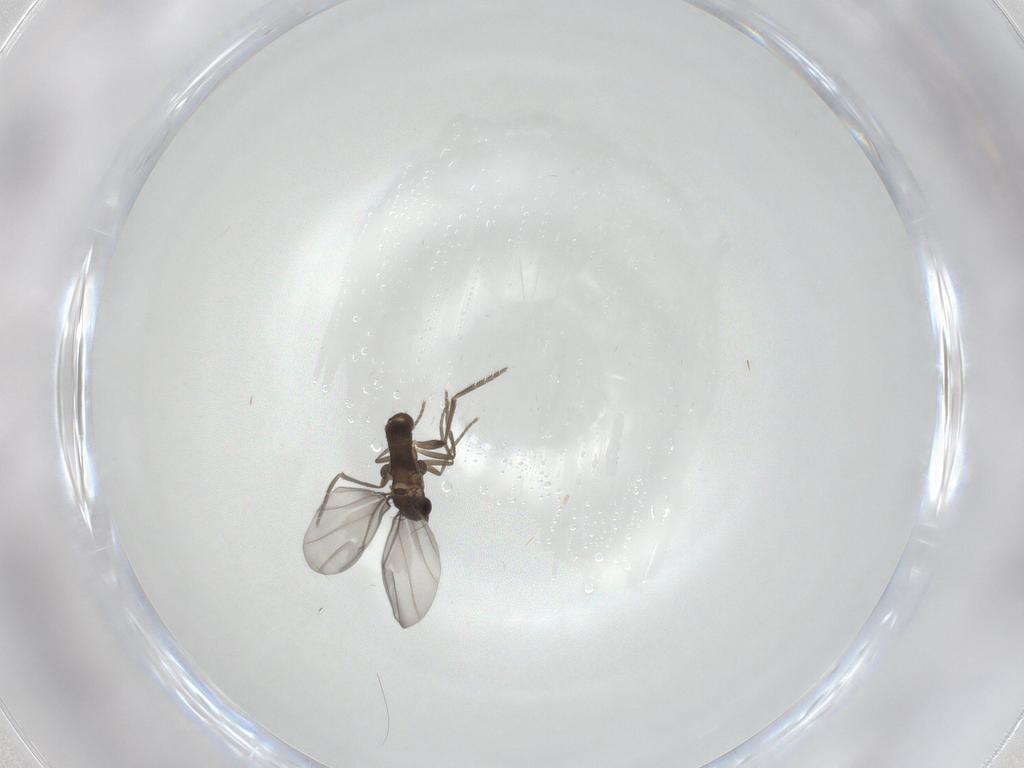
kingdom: Animalia
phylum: Arthropoda
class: Insecta
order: Diptera
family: Phoridae
